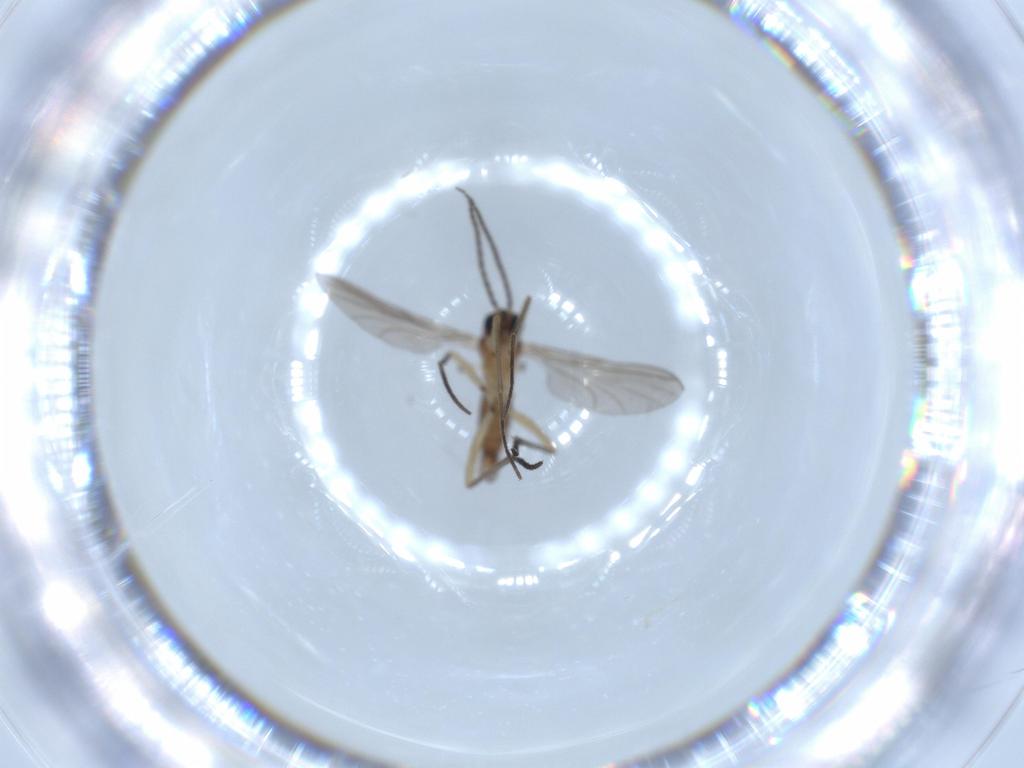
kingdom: Animalia
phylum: Arthropoda
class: Insecta
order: Diptera
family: Sciaridae
